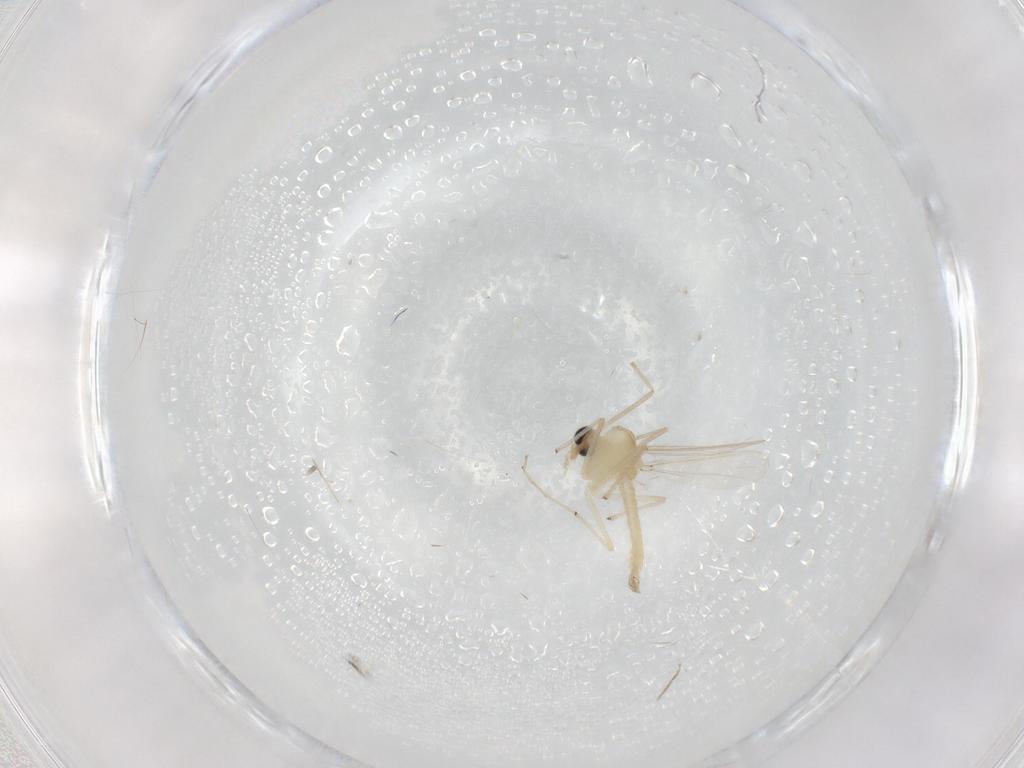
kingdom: Animalia
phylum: Arthropoda
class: Insecta
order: Diptera
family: Chironomidae
